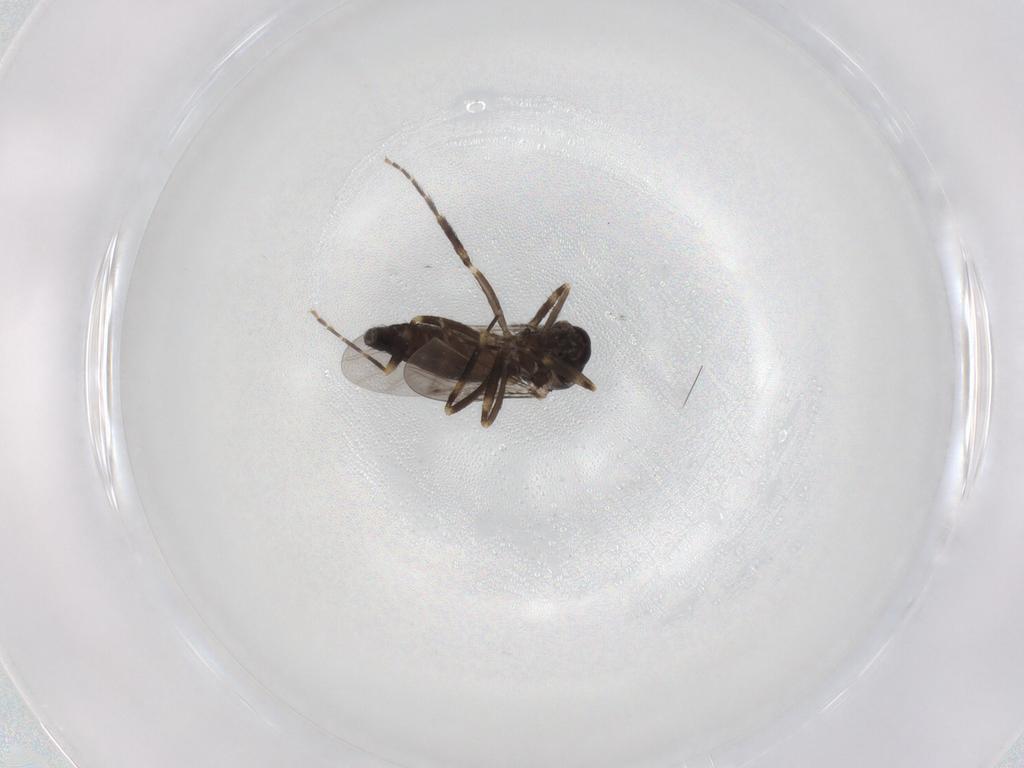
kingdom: Animalia
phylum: Arthropoda
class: Insecta
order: Diptera
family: Ceratopogonidae
